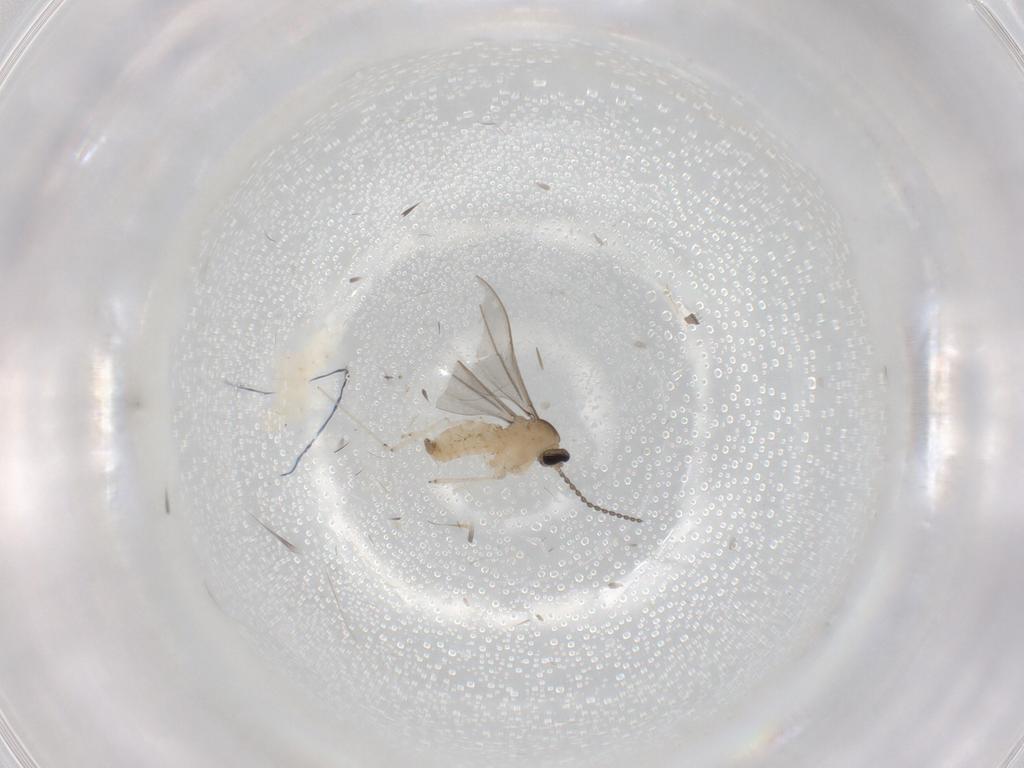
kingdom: Animalia
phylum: Arthropoda
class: Insecta
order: Diptera
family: Cecidomyiidae
